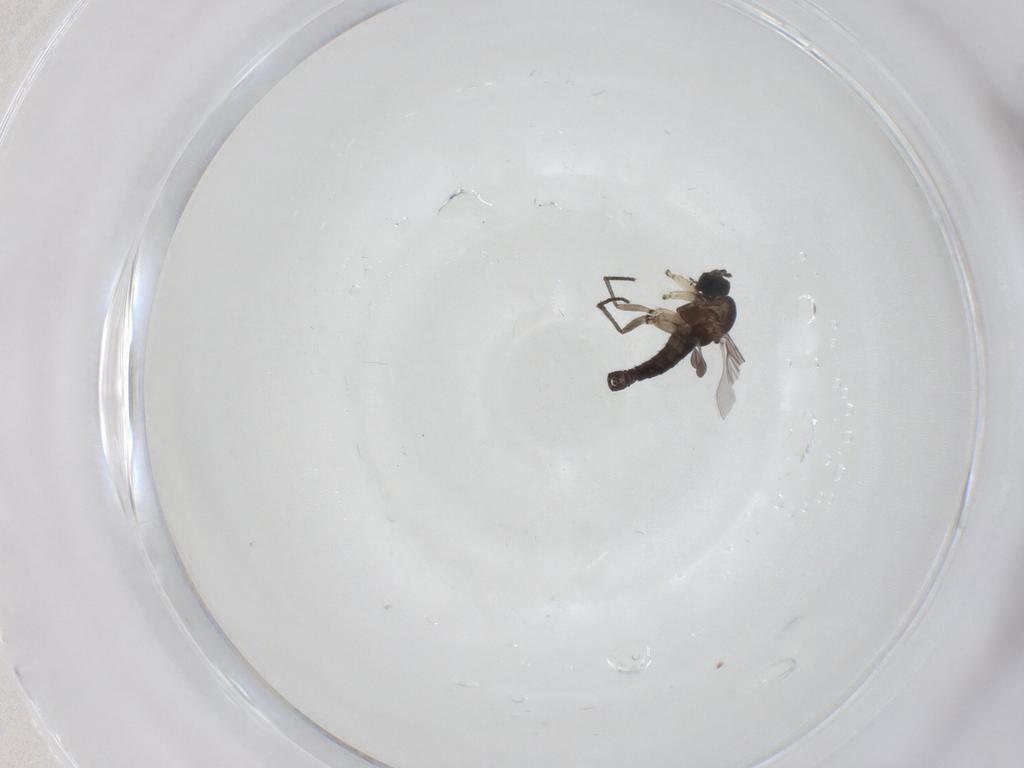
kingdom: Animalia
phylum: Arthropoda
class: Insecta
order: Diptera
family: Sciaridae
